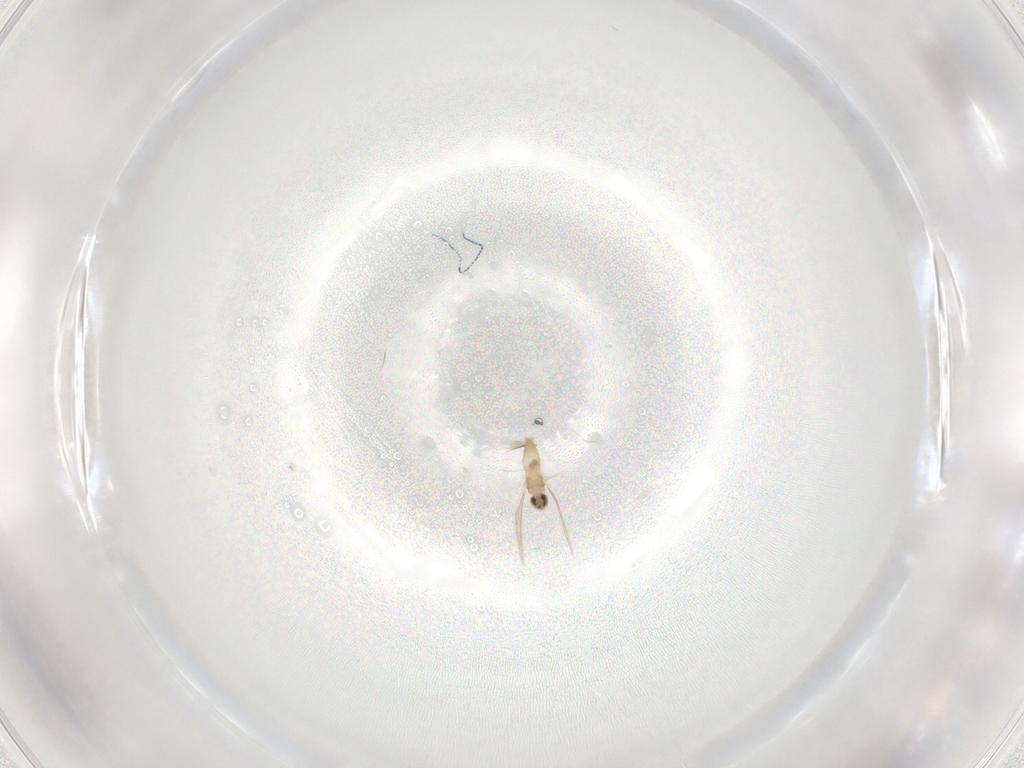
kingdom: Animalia
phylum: Arthropoda
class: Insecta
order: Diptera
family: Cecidomyiidae
